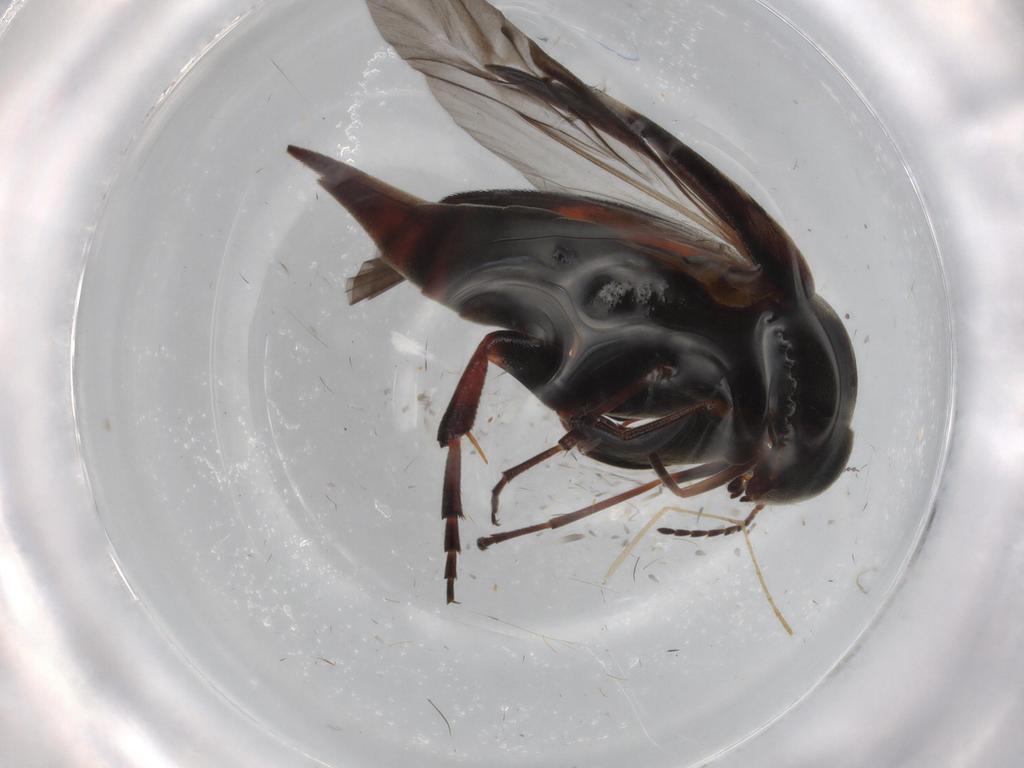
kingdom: Animalia
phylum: Arthropoda
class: Insecta
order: Coleoptera
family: Mordellidae
